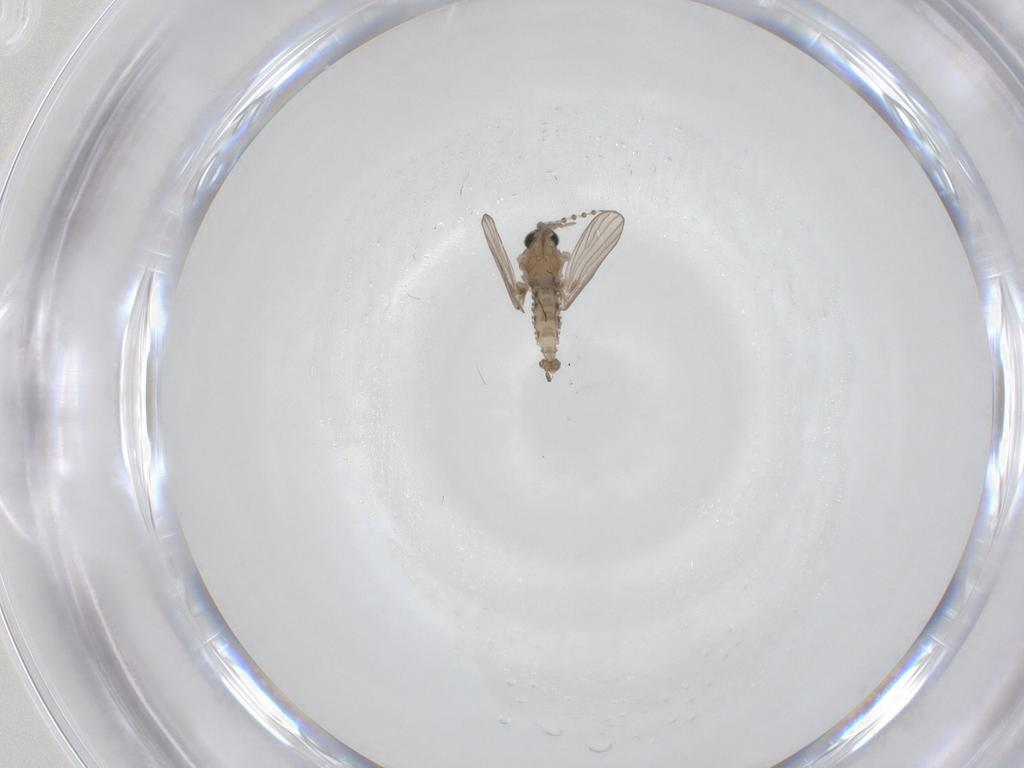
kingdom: Animalia
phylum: Arthropoda
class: Insecta
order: Diptera
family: Psychodidae
